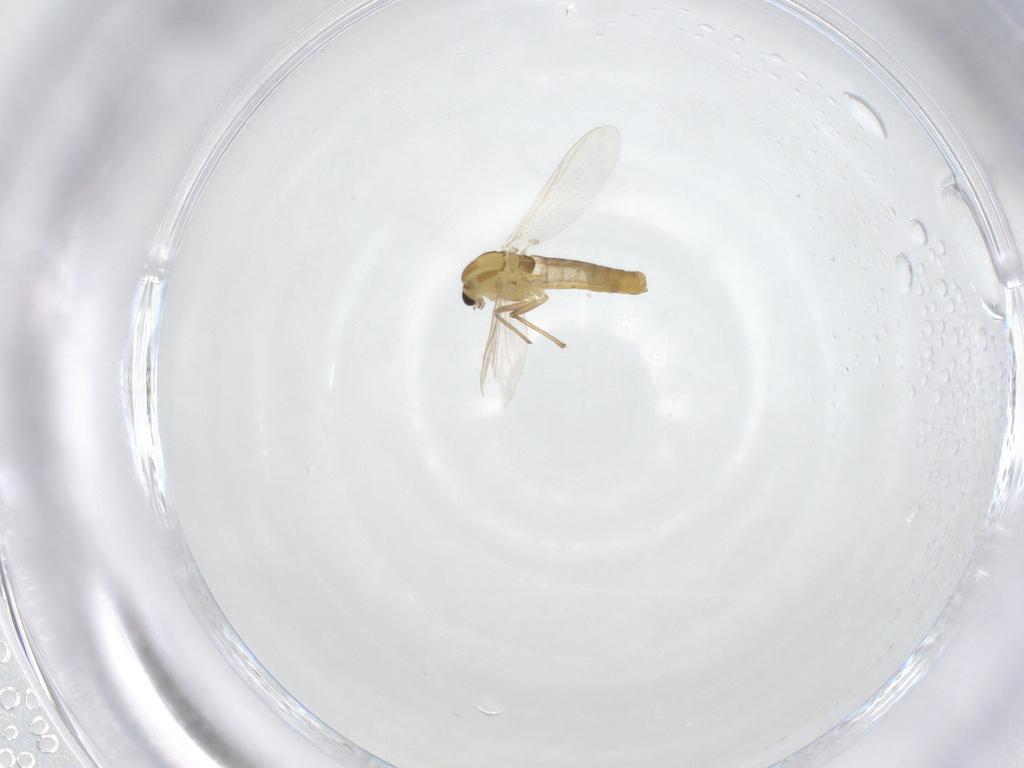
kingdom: Animalia
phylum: Arthropoda
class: Insecta
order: Diptera
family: Chironomidae
